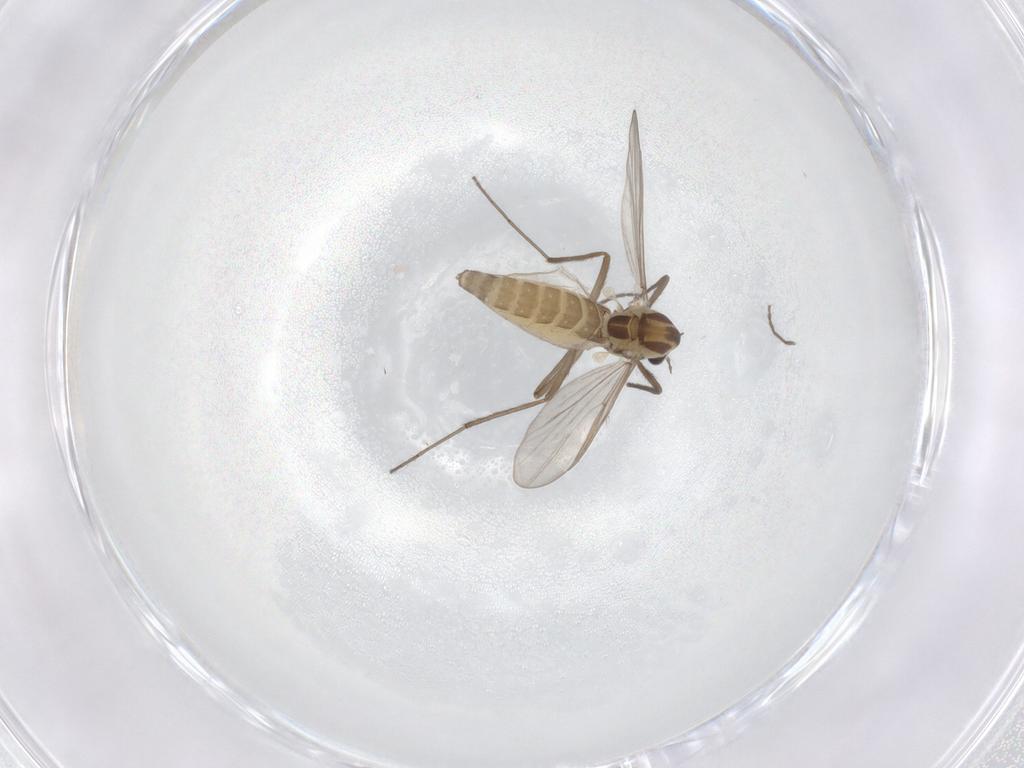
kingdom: Animalia
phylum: Arthropoda
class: Insecta
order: Diptera
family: Chironomidae
